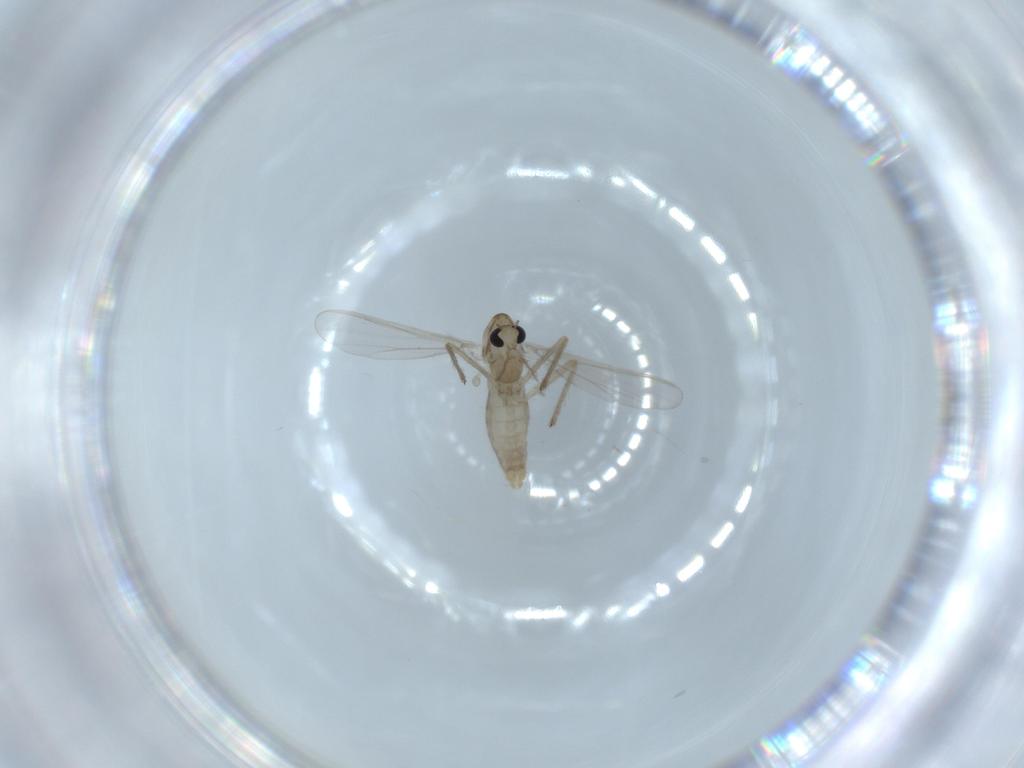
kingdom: Animalia
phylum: Arthropoda
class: Insecta
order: Diptera
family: Chironomidae
